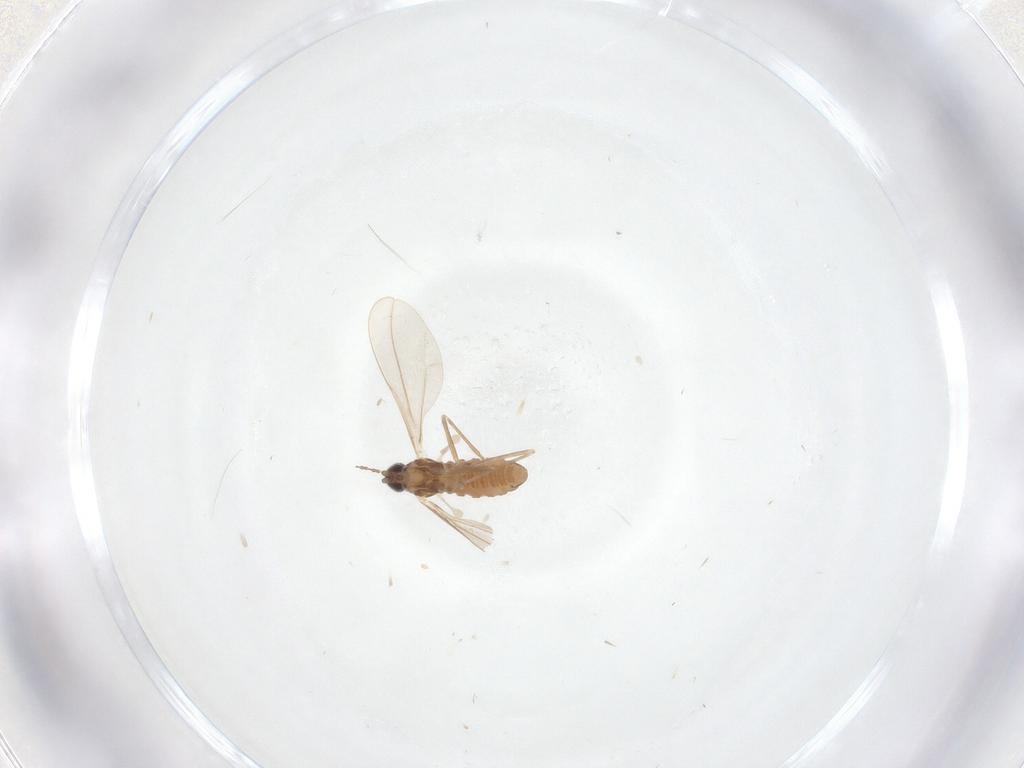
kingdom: Animalia
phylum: Arthropoda
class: Insecta
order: Diptera
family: Cecidomyiidae
